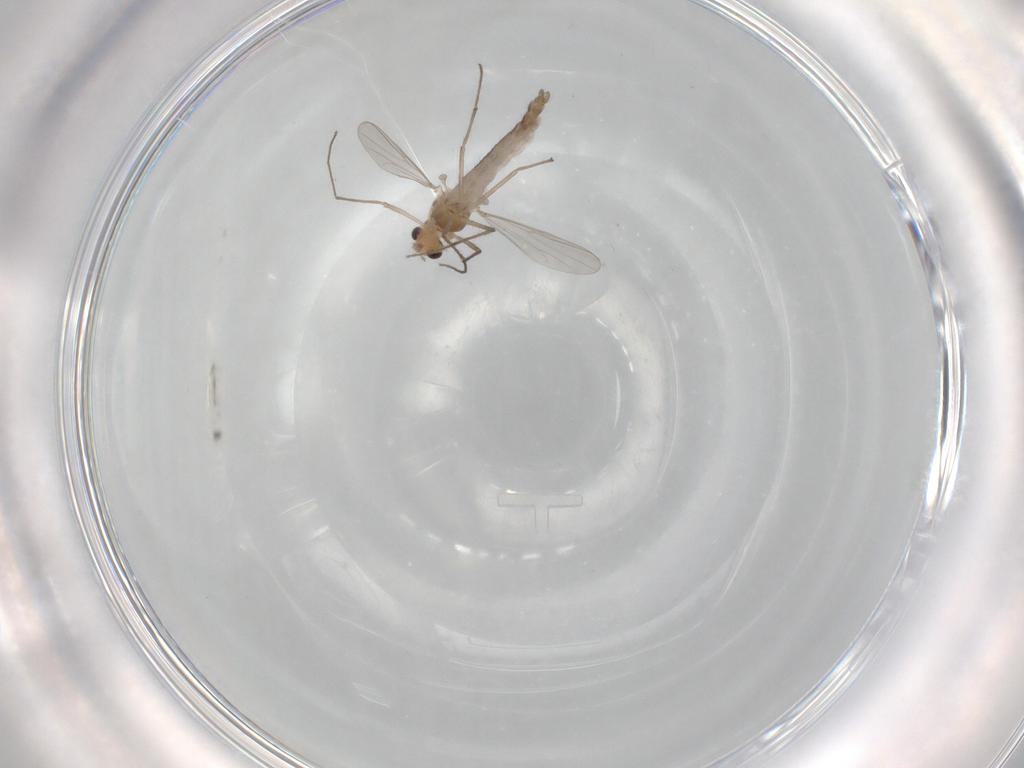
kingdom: Animalia
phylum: Arthropoda
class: Insecta
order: Diptera
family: Chironomidae
